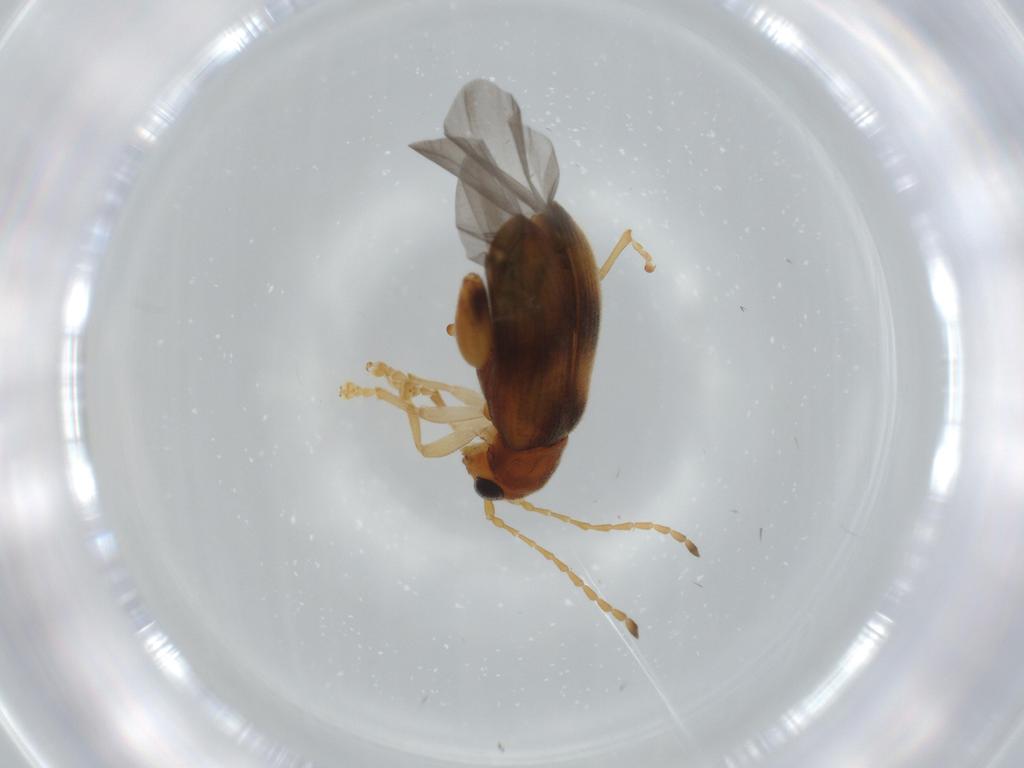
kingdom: Animalia
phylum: Arthropoda
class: Insecta
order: Coleoptera
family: Chrysomelidae
